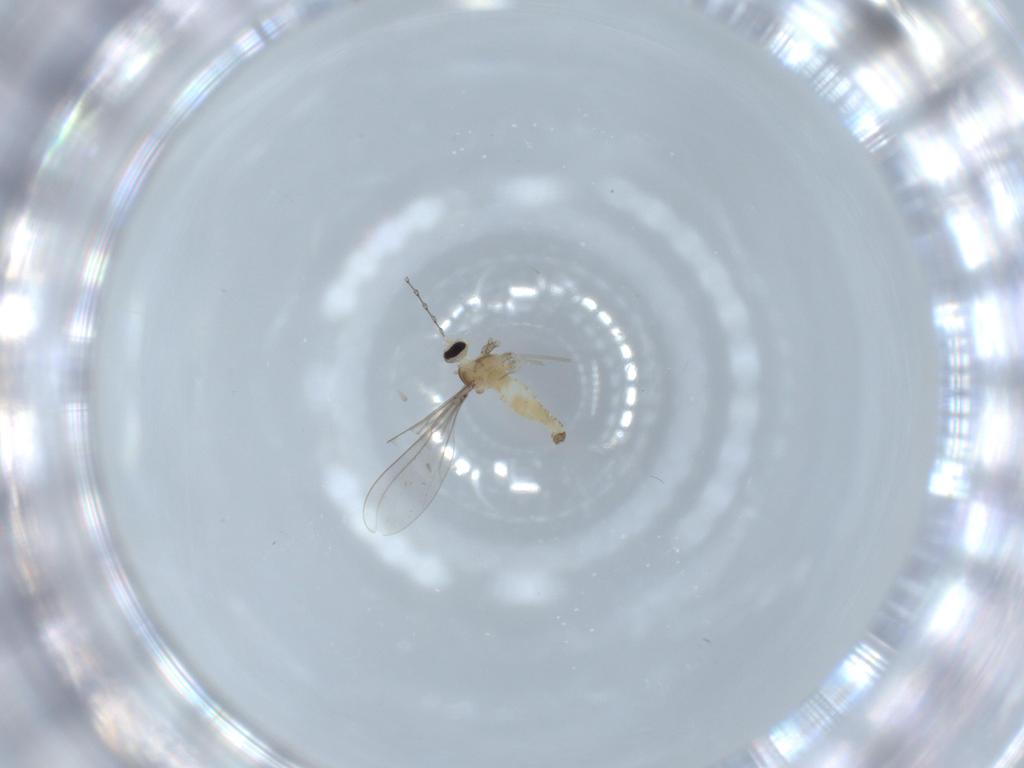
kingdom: Animalia
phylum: Arthropoda
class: Insecta
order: Diptera
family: Cecidomyiidae
